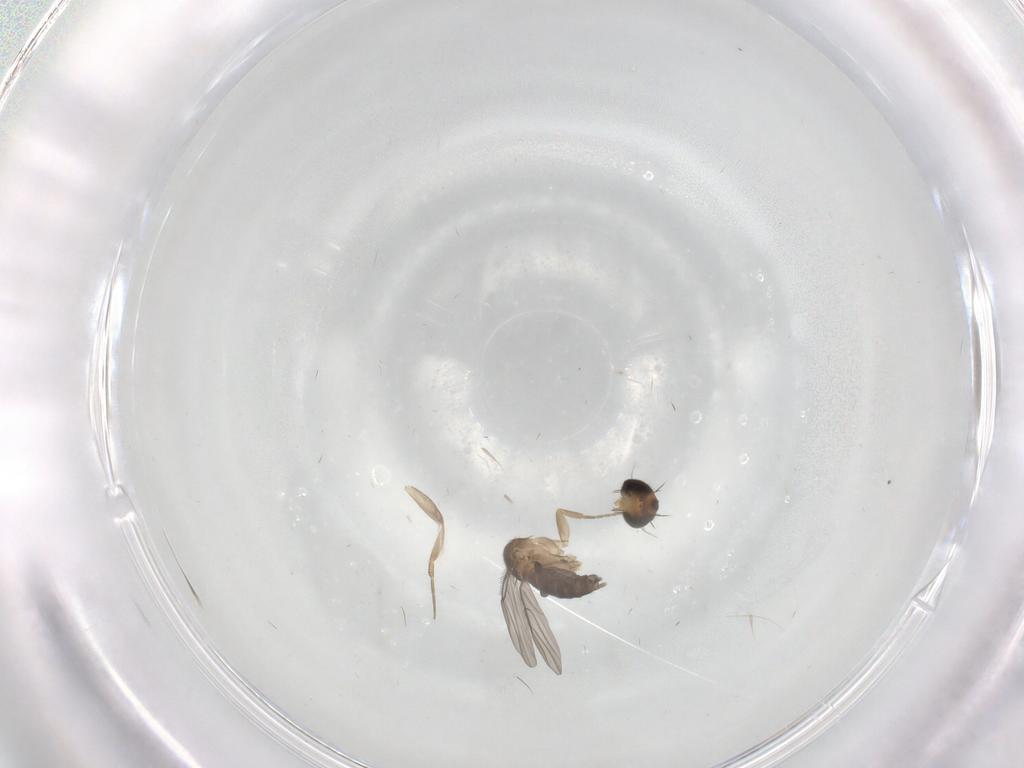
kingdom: Animalia
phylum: Arthropoda
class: Insecta
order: Diptera
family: Phoridae
